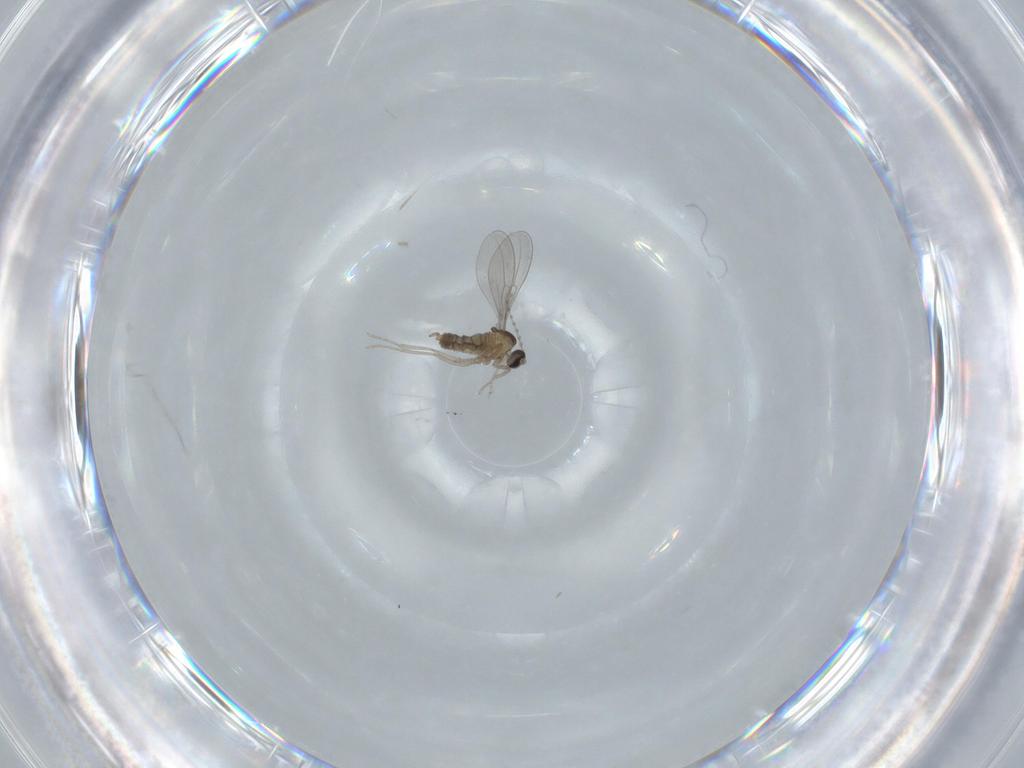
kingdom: Animalia
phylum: Arthropoda
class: Insecta
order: Diptera
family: Cecidomyiidae
